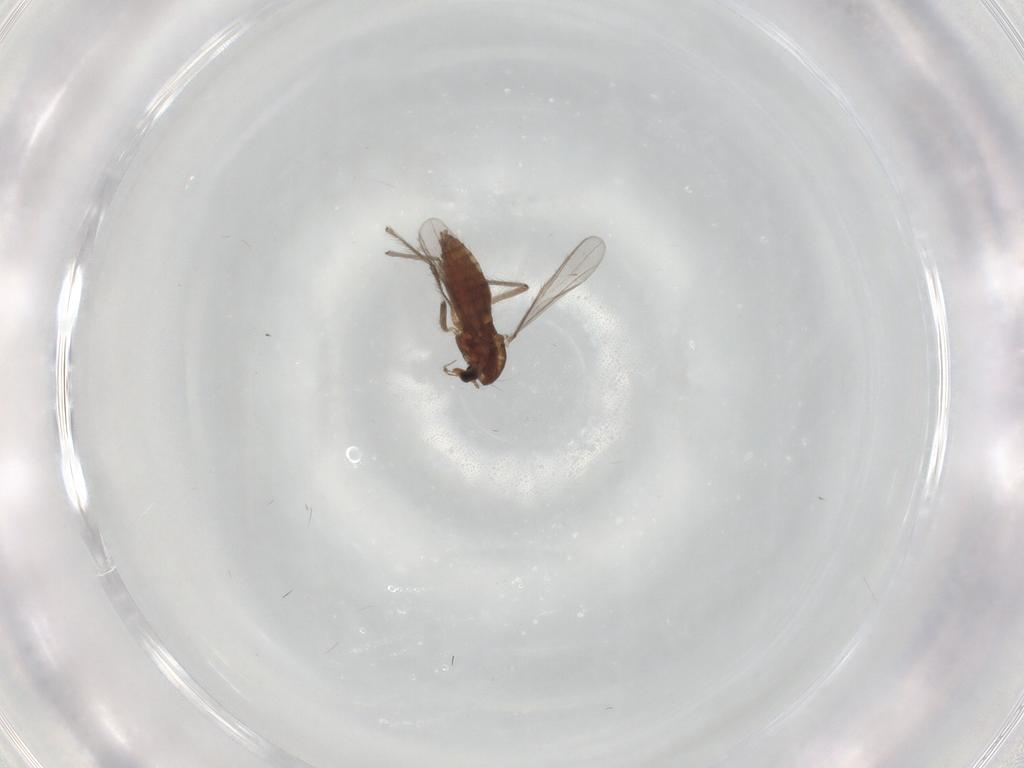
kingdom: Animalia
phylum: Arthropoda
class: Insecta
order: Diptera
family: Chironomidae
